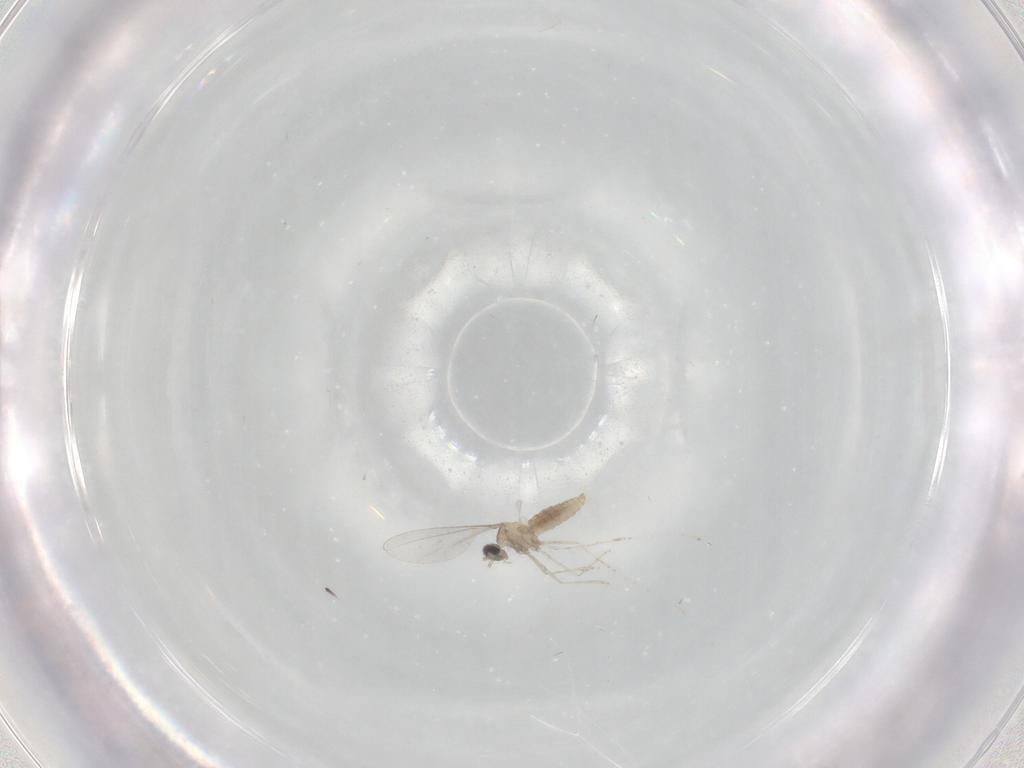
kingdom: Animalia
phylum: Arthropoda
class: Insecta
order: Diptera
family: Cecidomyiidae
